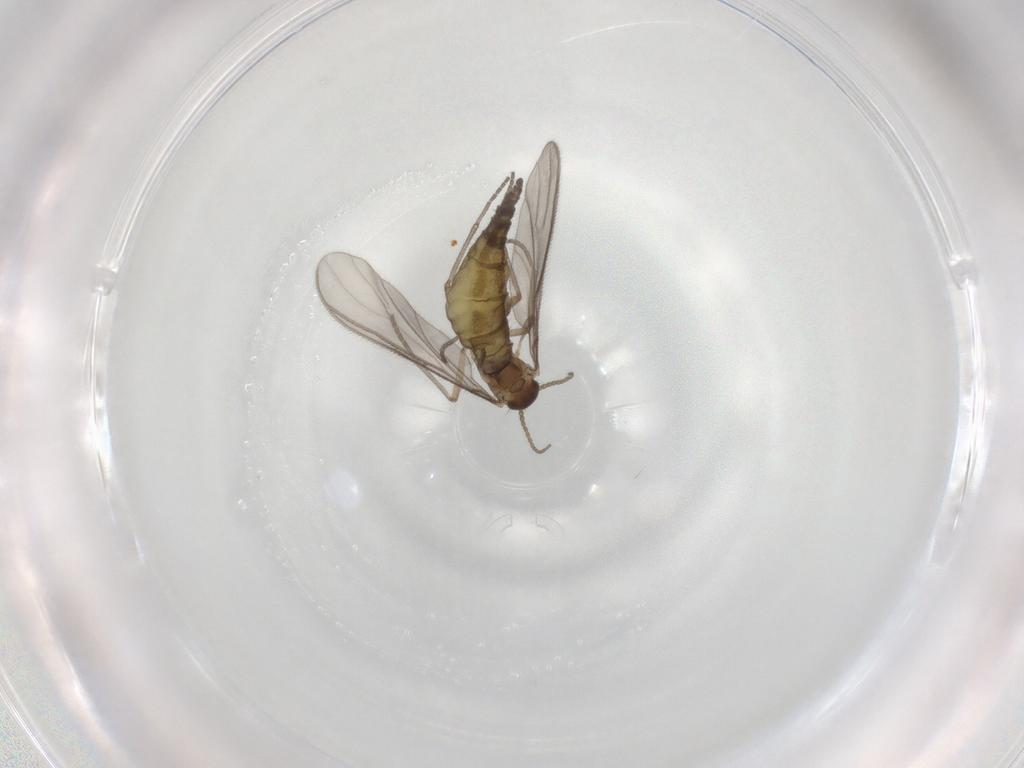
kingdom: Animalia
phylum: Arthropoda
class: Insecta
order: Diptera
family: Sciaridae
